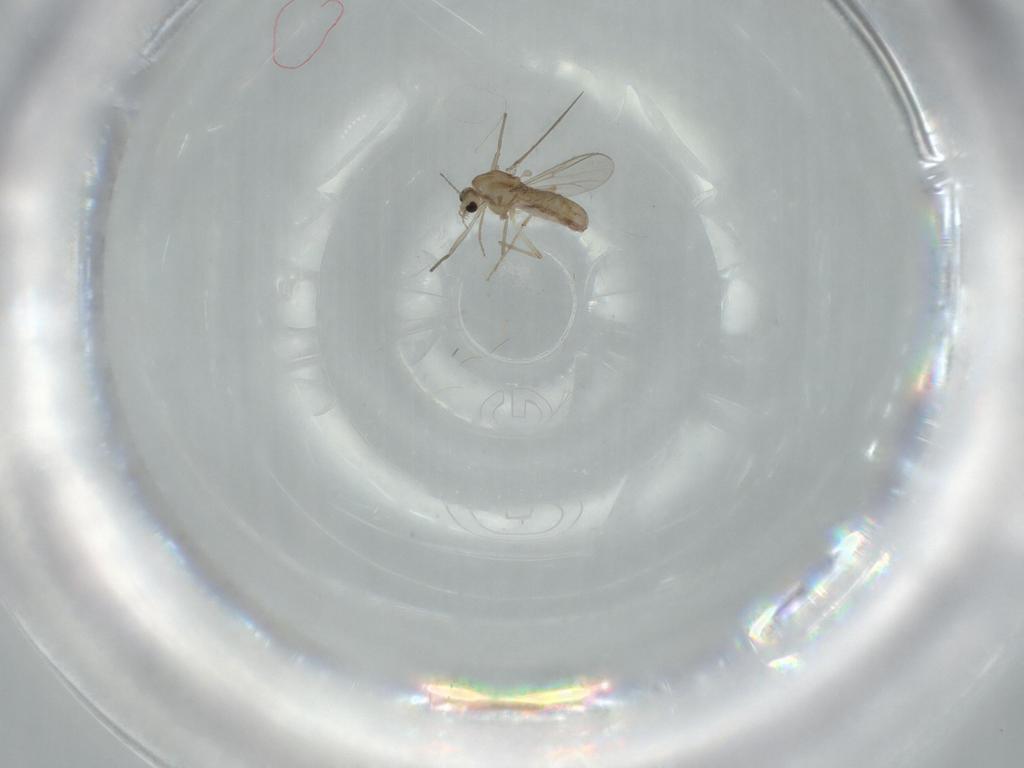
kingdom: Animalia
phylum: Arthropoda
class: Insecta
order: Diptera
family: Chironomidae
